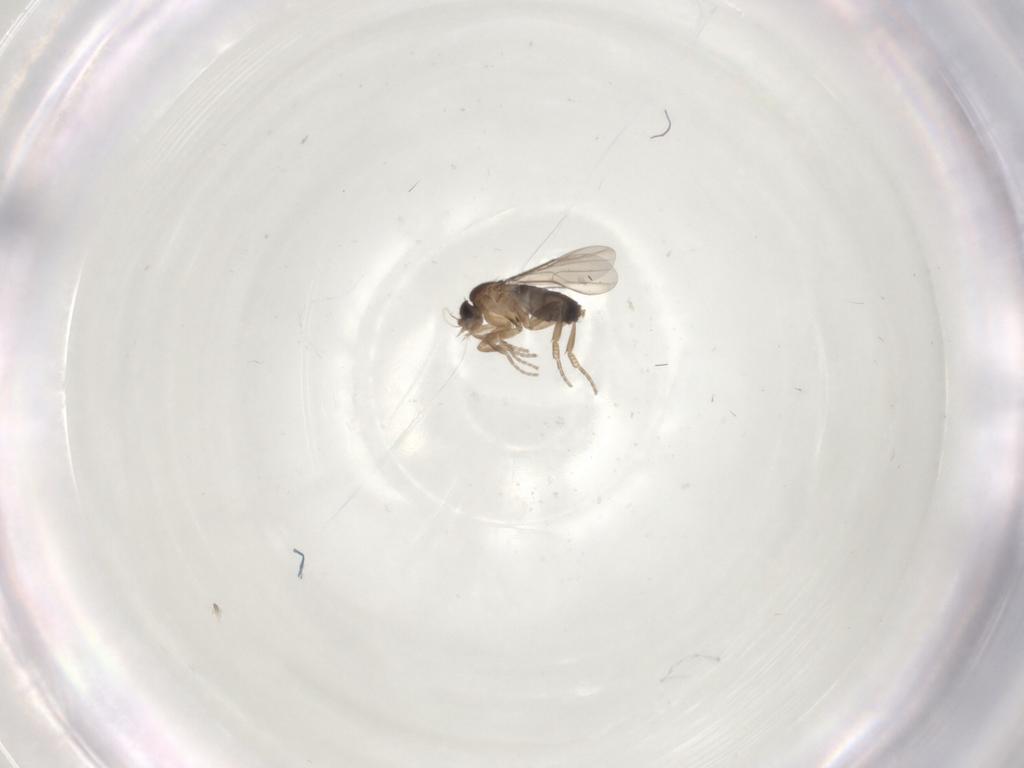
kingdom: Animalia
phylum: Arthropoda
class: Insecta
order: Diptera
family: Phoridae
